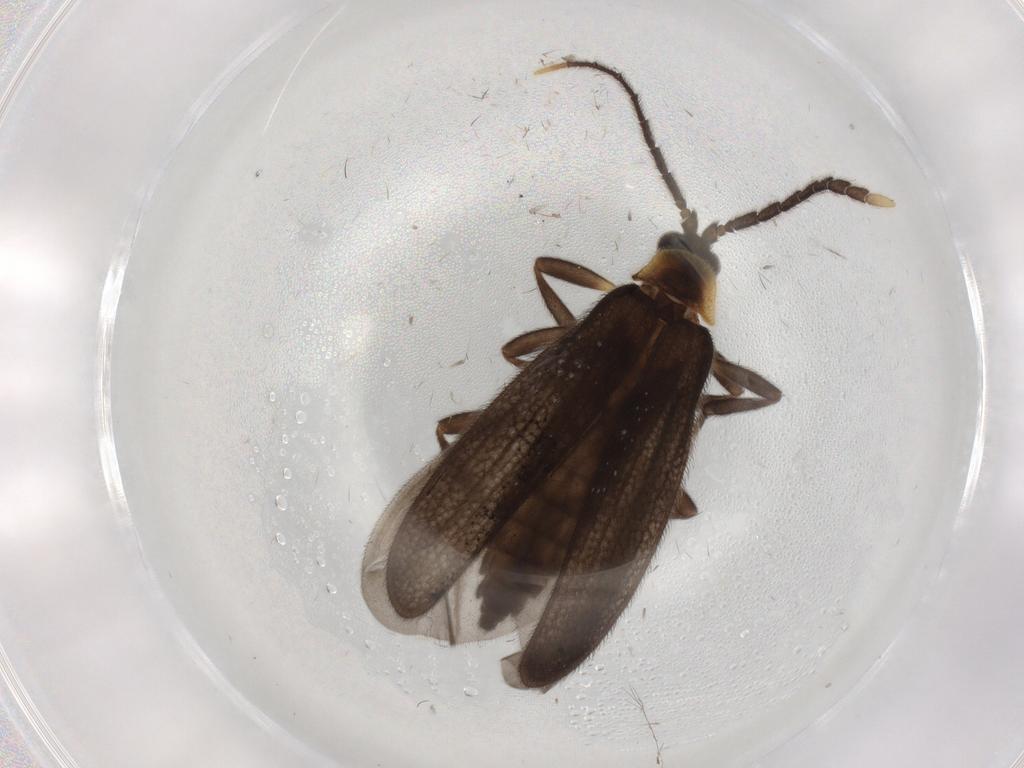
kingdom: Animalia
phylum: Arthropoda
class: Insecta
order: Coleoptera
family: Lycidae
